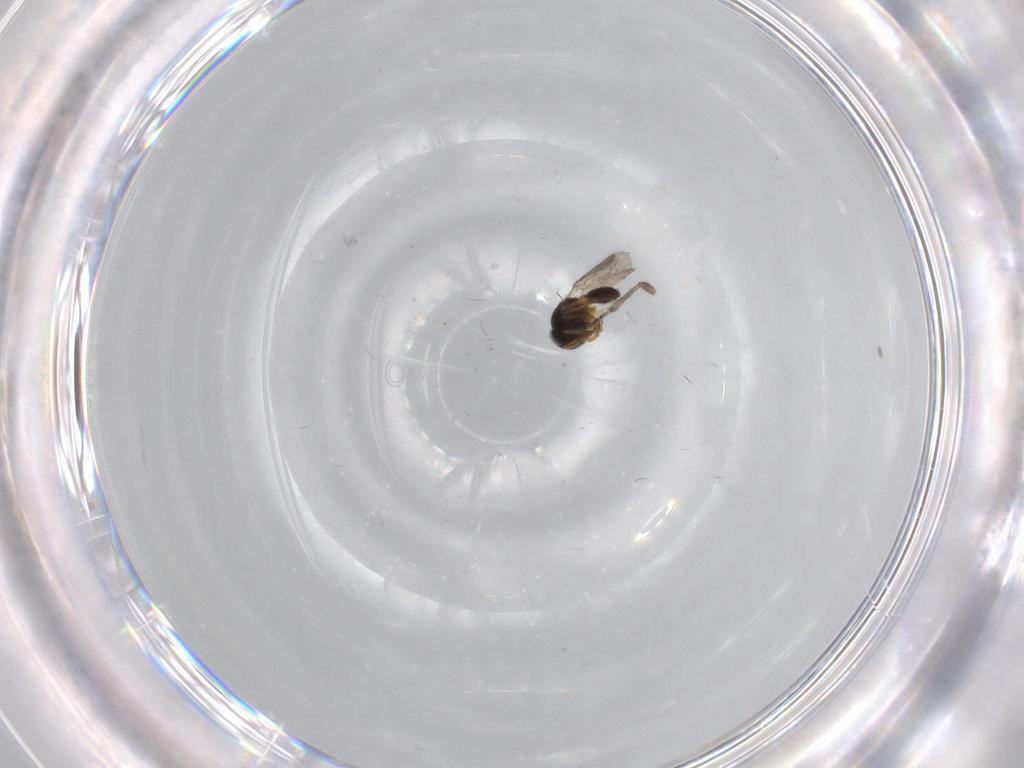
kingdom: Animalia
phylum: Arthropoda
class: Insecta
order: Hymenoptera
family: Scelionidae
